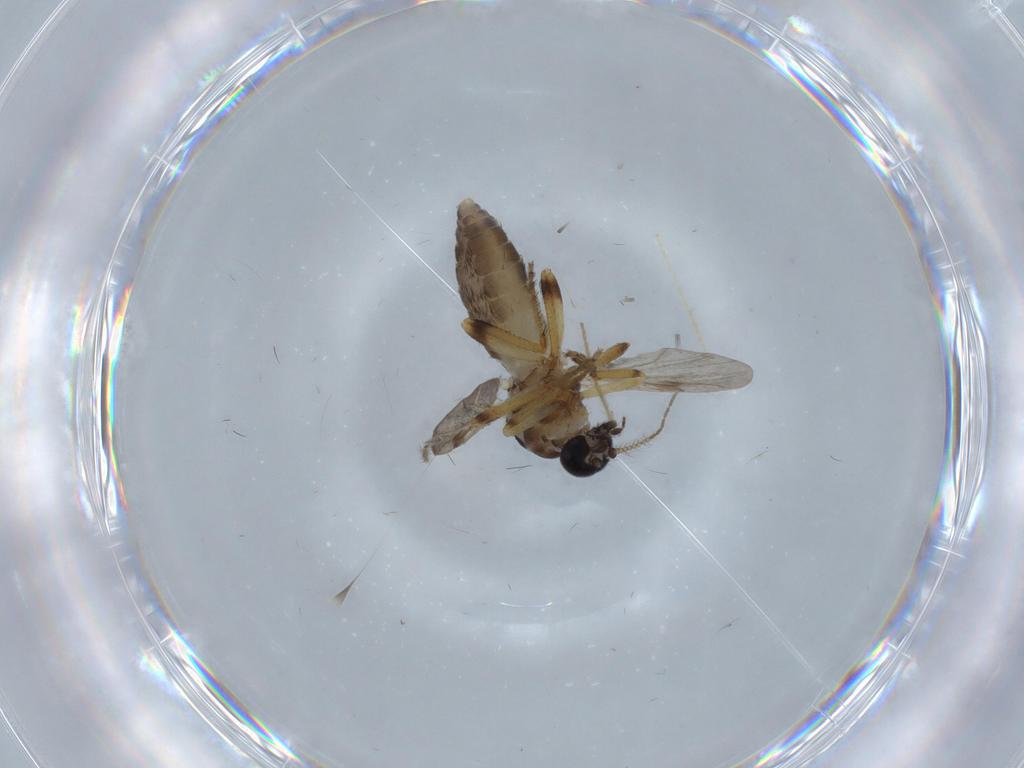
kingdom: Animalia
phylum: Arthropoda
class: Insecta
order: Diptera
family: Ceratopogonidae
